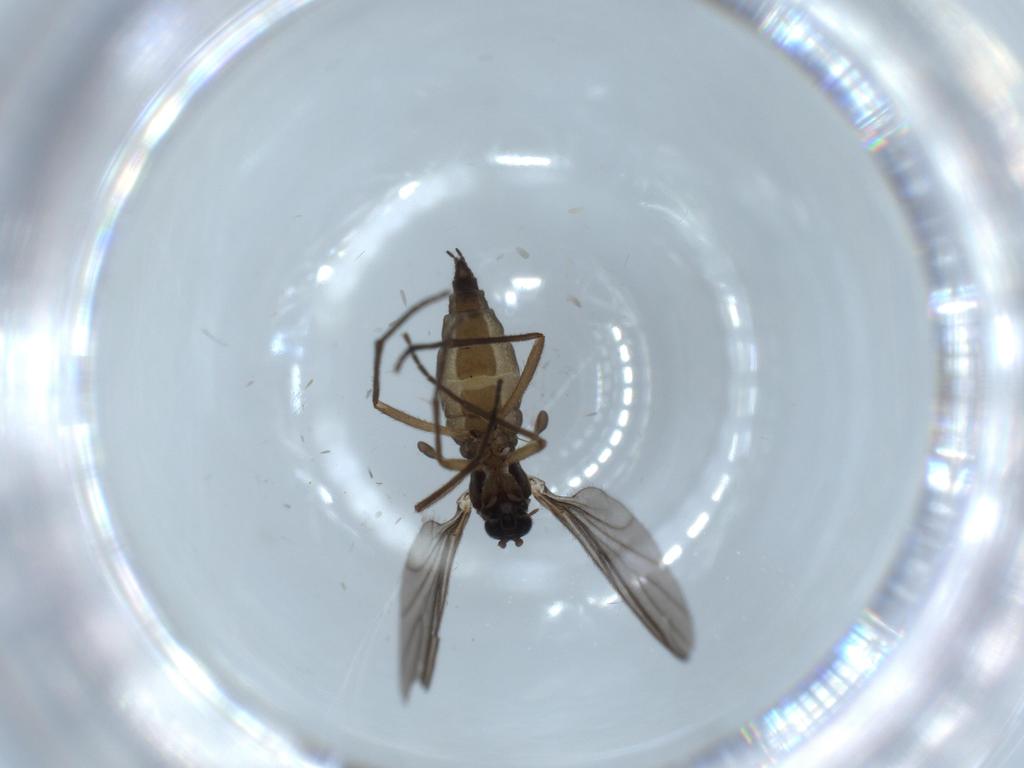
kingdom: Animalia
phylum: Arthropoda
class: Insecta
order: Diptera
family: Sciaridae
